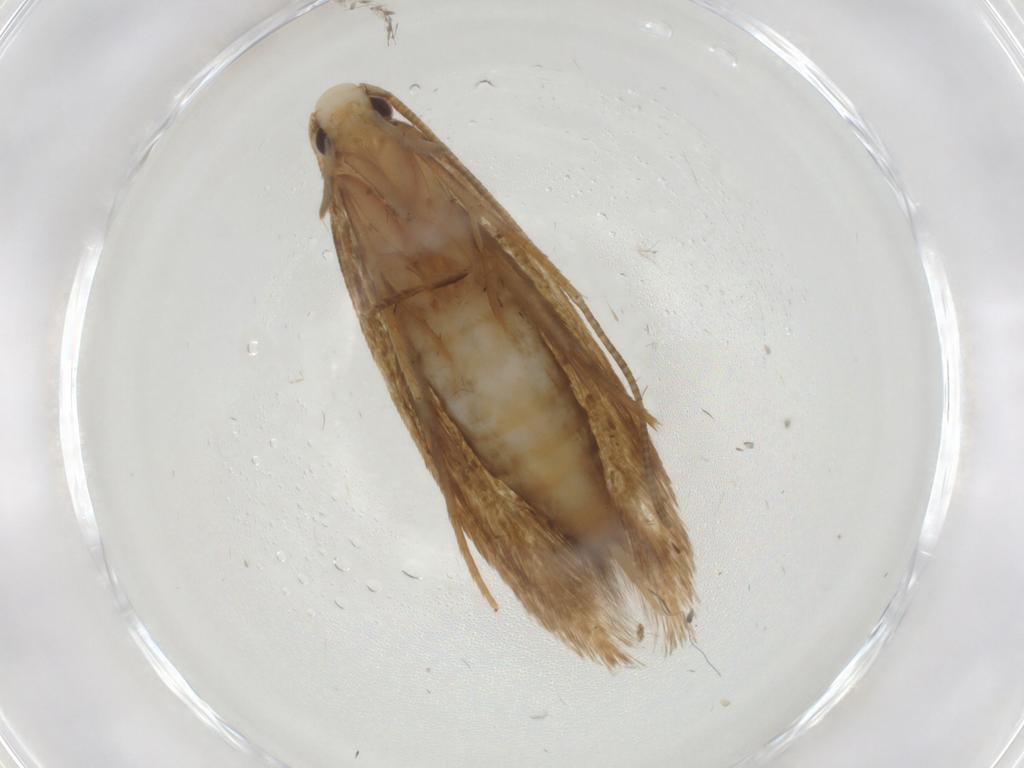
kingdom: Animalia
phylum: Arthropoda
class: Insecta
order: Lepidoptera
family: Tineidae
